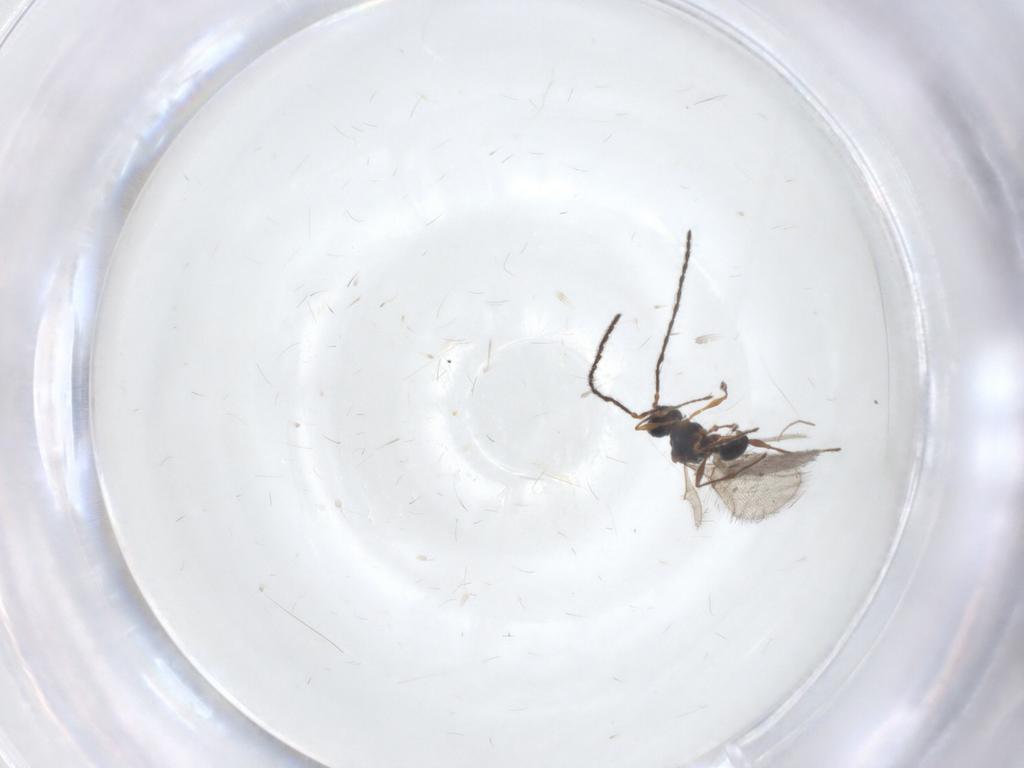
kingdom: Animalia
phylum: Arthropoda
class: Insecta
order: Hymenoptera
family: Diapriidae
